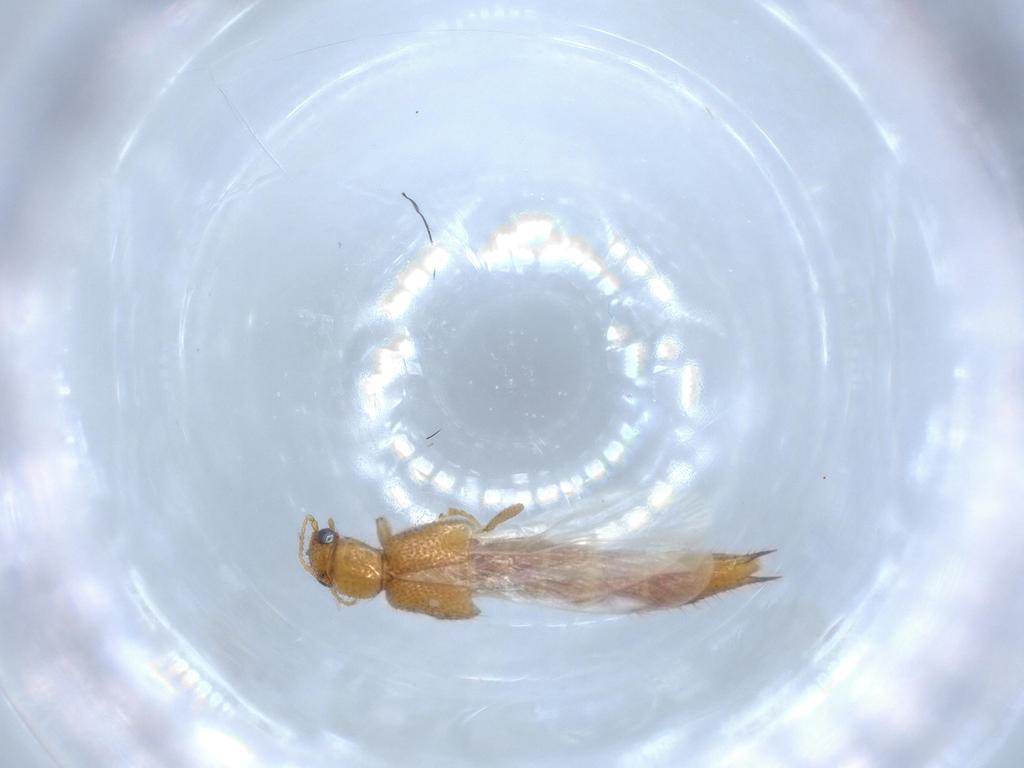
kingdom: Animalia
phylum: Arthropoda
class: Insecta
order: Coleoptera
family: Staphylinidae
